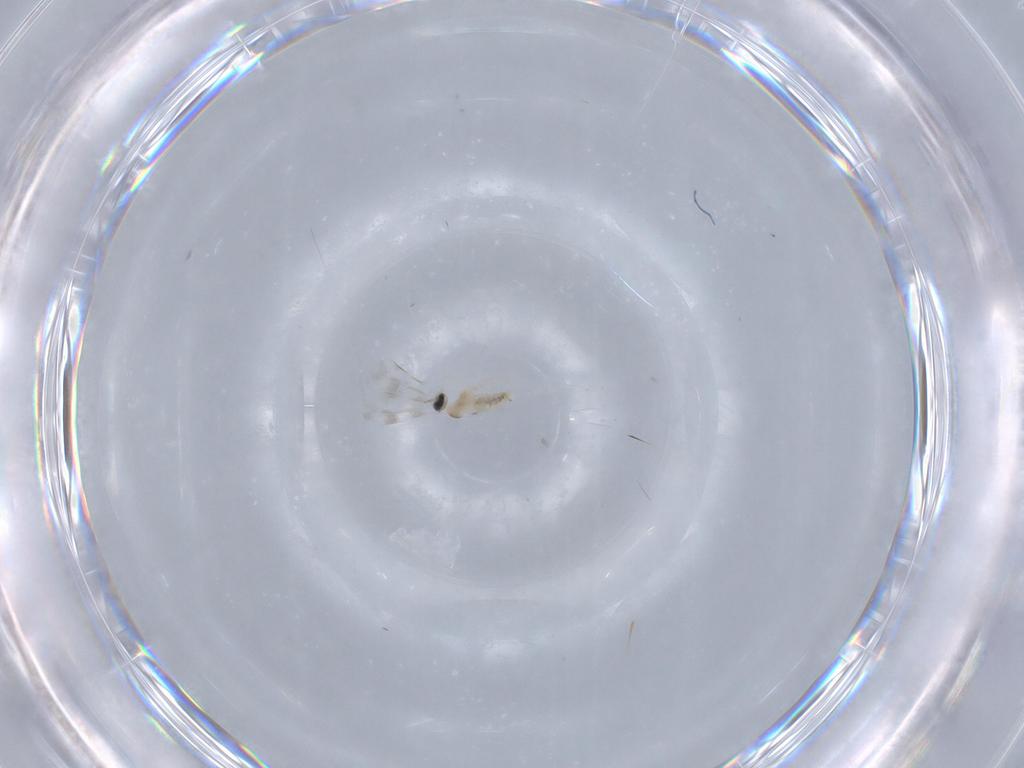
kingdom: Animalia
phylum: Arthropoda
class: Insecta
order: Diptera
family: Cecidomyiidae
